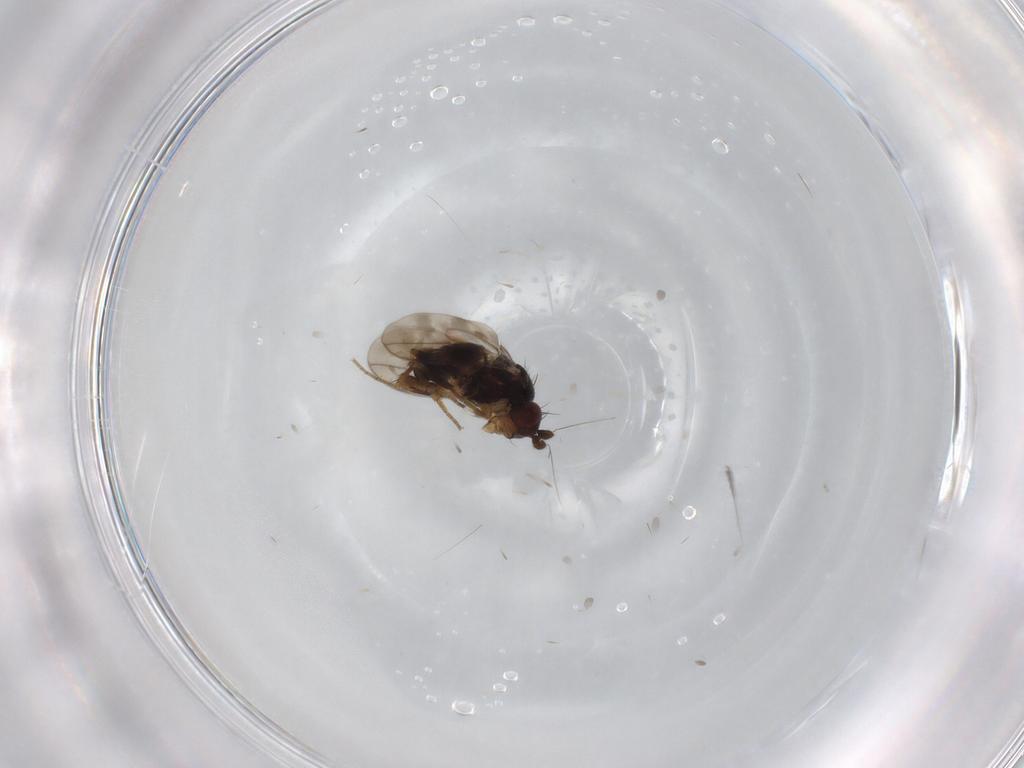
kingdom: Animalia
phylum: Arthropoda
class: Insecta
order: Diptera
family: Sphaeroceridae
